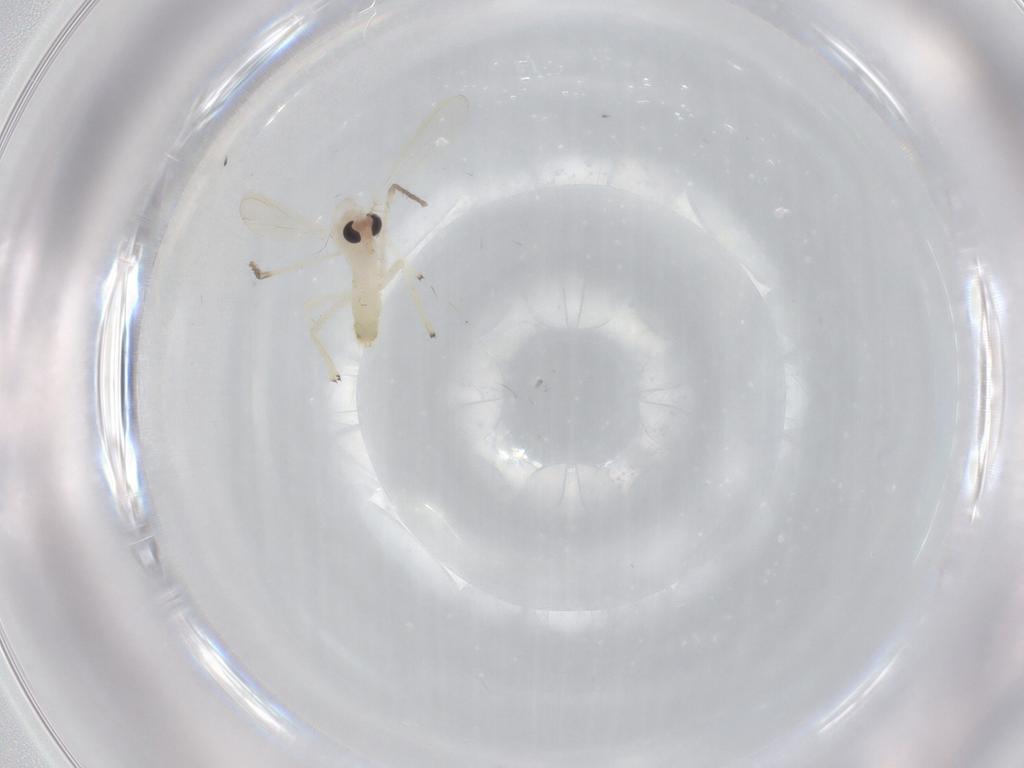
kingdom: Animalia
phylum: Arthropoda
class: Insecta
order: Diptera
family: Chironomidae
